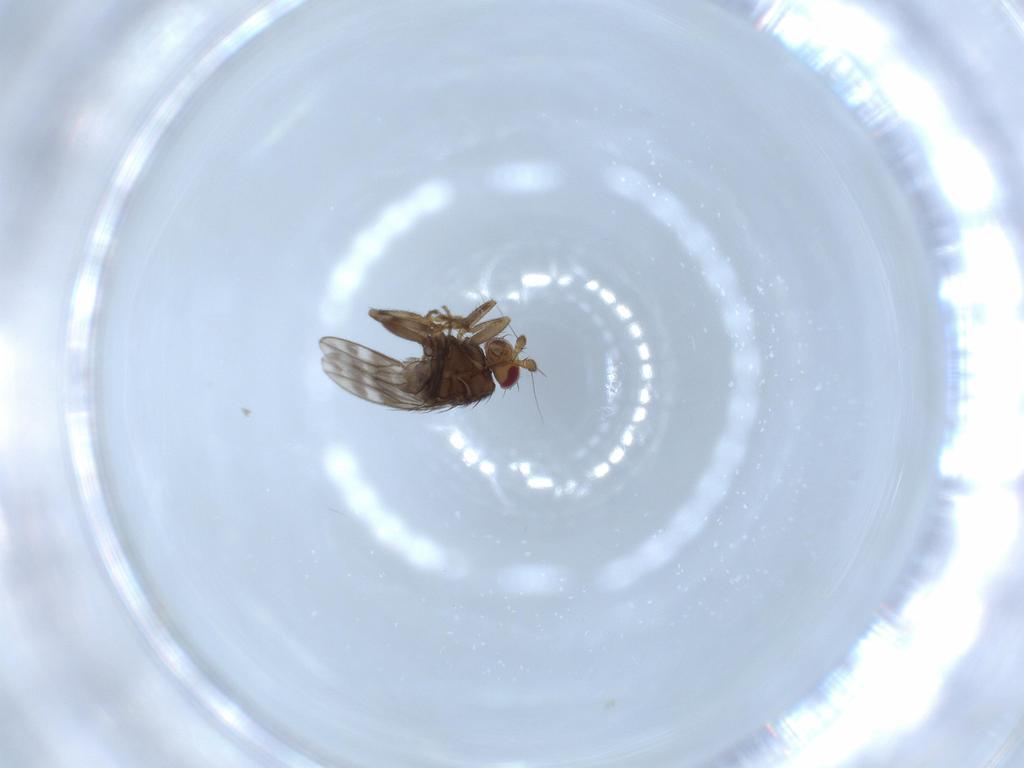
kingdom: Animalia
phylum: Arthropoda
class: Insecta
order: Diptera
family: Sphaeroceridae
